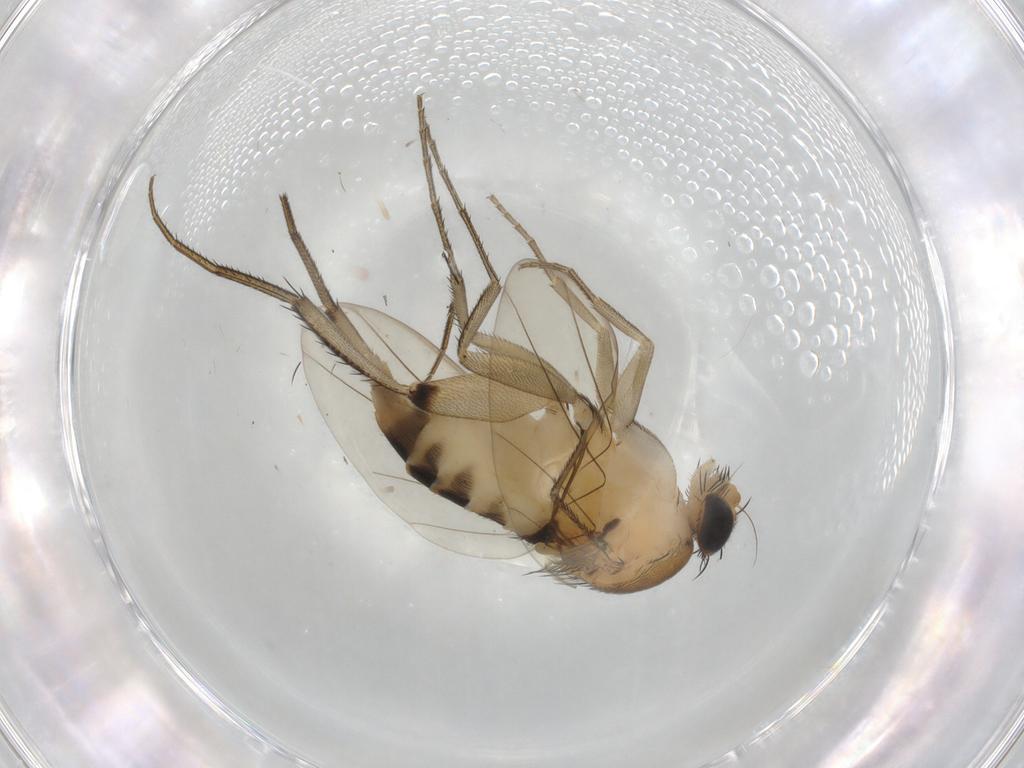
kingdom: Animalia
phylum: Arthropoda
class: Insecta
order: Diptera
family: Phoridae
